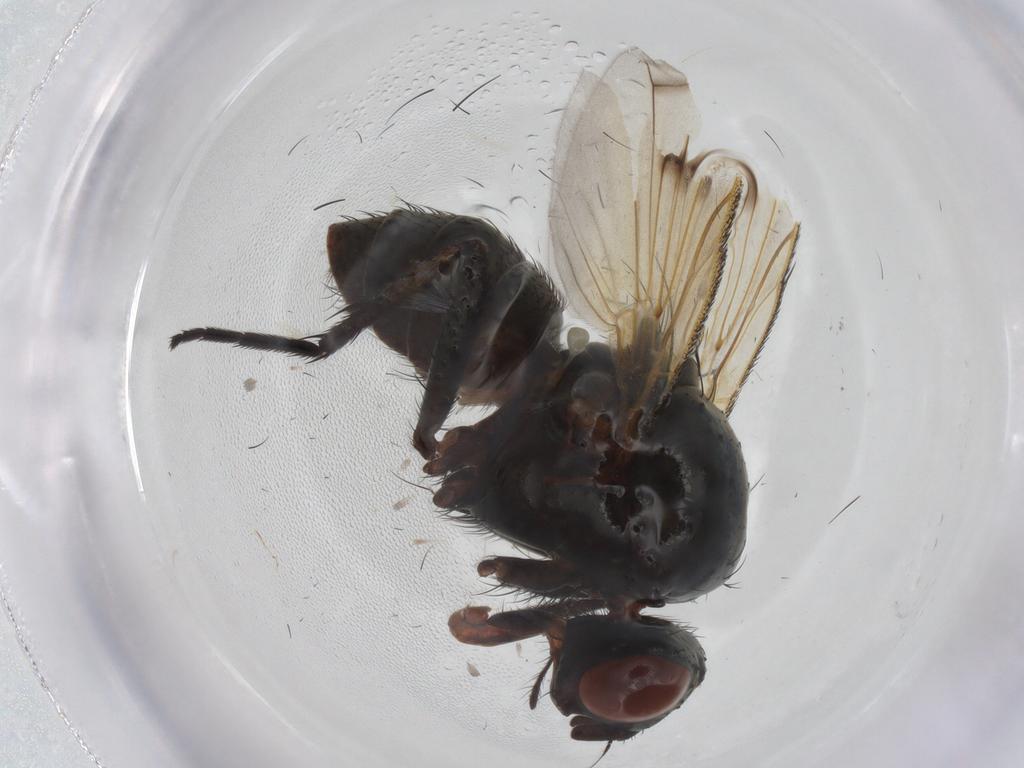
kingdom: Animalia
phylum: Arthropoda
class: Insecta
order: Diptera
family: Anthomyiidae
